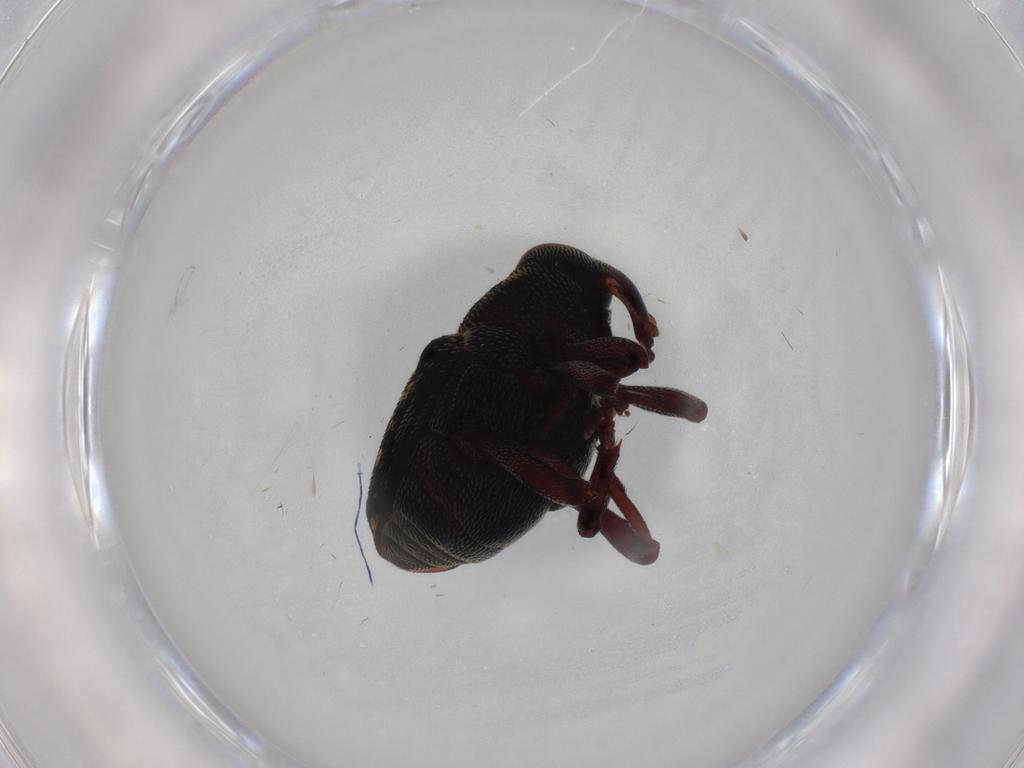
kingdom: Animalia
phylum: Arthropoda
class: Insecta
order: Coleoptera
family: Curculionidae
